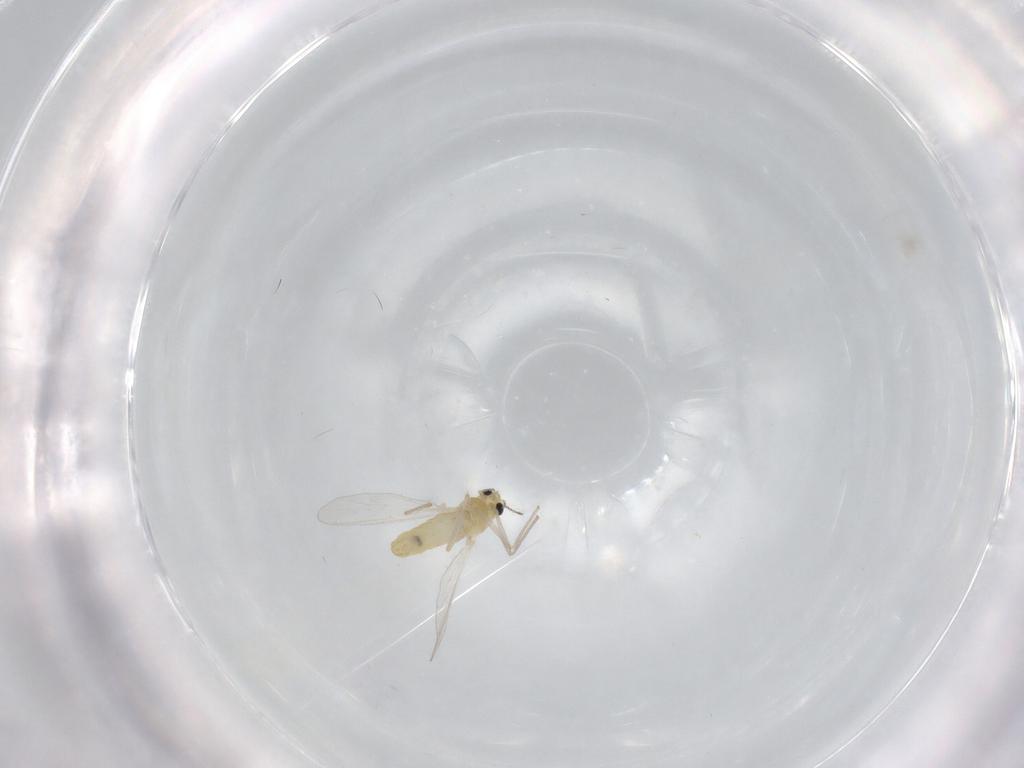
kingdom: Animalia
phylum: Arthropoda
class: Insecta
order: Diptera
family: Chironomidae
